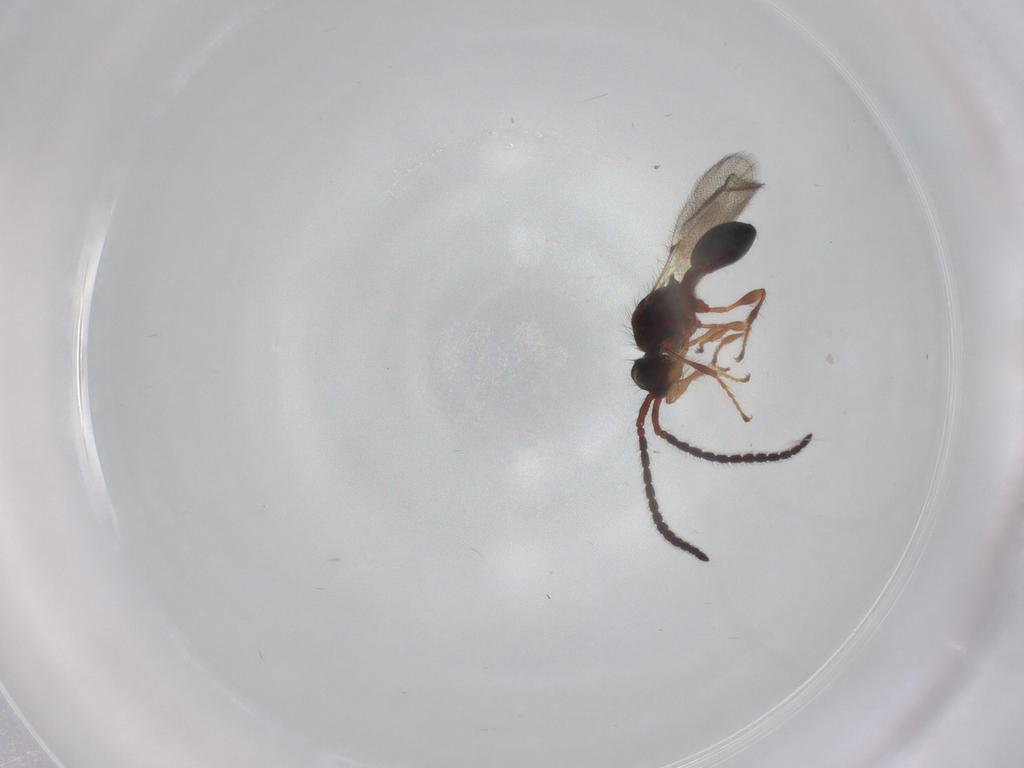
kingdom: Animalia
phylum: Arthropoda
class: Insecta
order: Hymenoptera
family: Diapriidae
